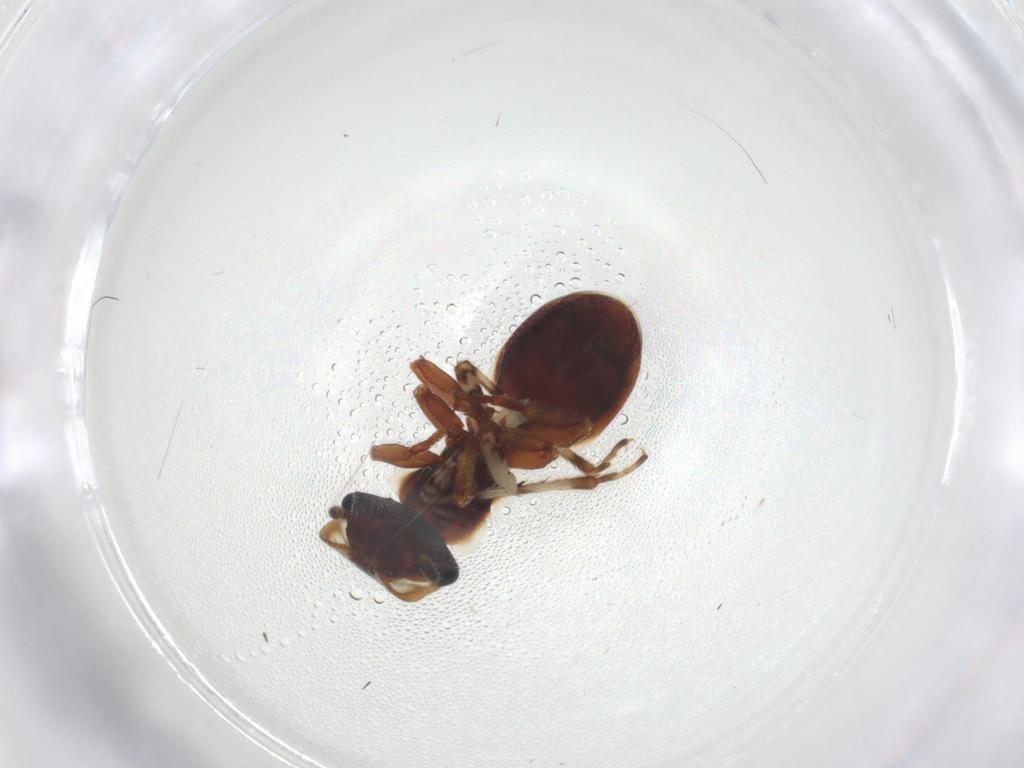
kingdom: Animalia
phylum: Arthropoda
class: Insecta
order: Hymenoptera
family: Formicidae
